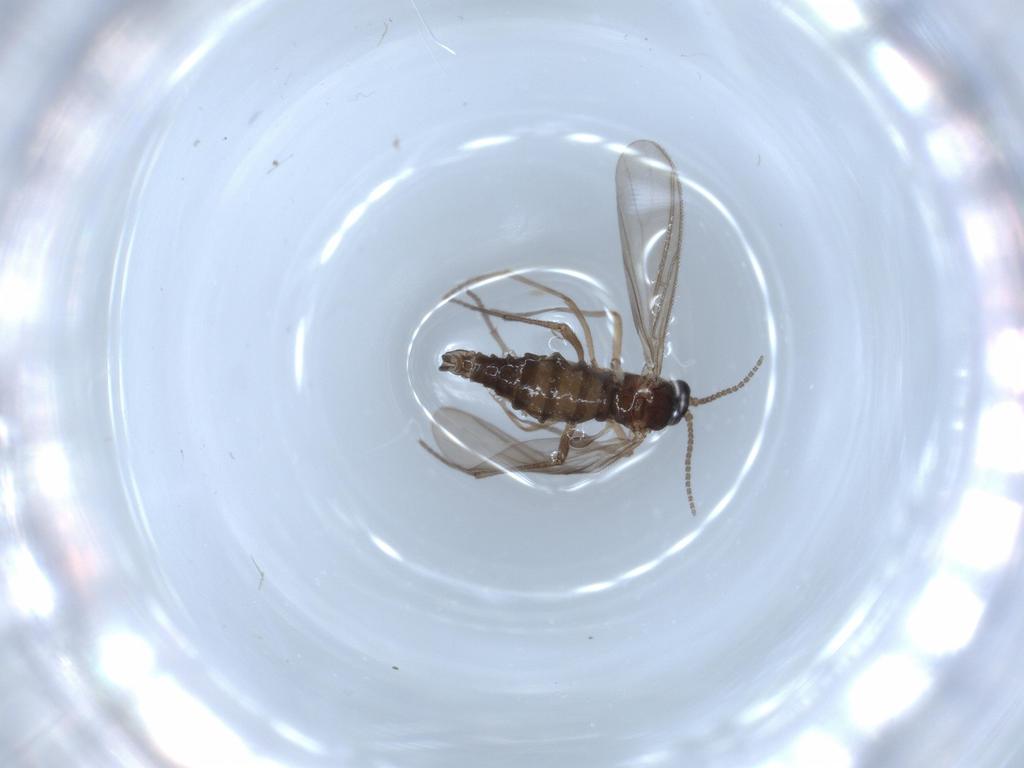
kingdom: Animalia
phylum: Arthropoda
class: Insecta
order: Diptera
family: Sciaridae
